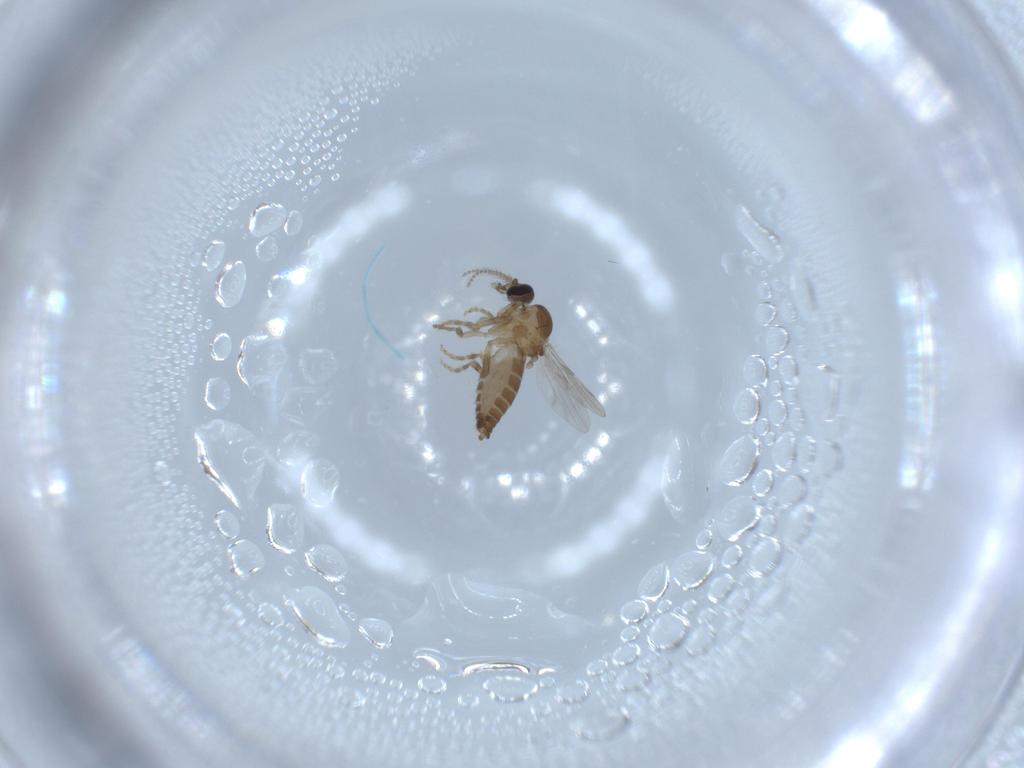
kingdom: Animalia
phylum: Arthropoda
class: Insecta
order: Diptera
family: Ceratopogonidae
